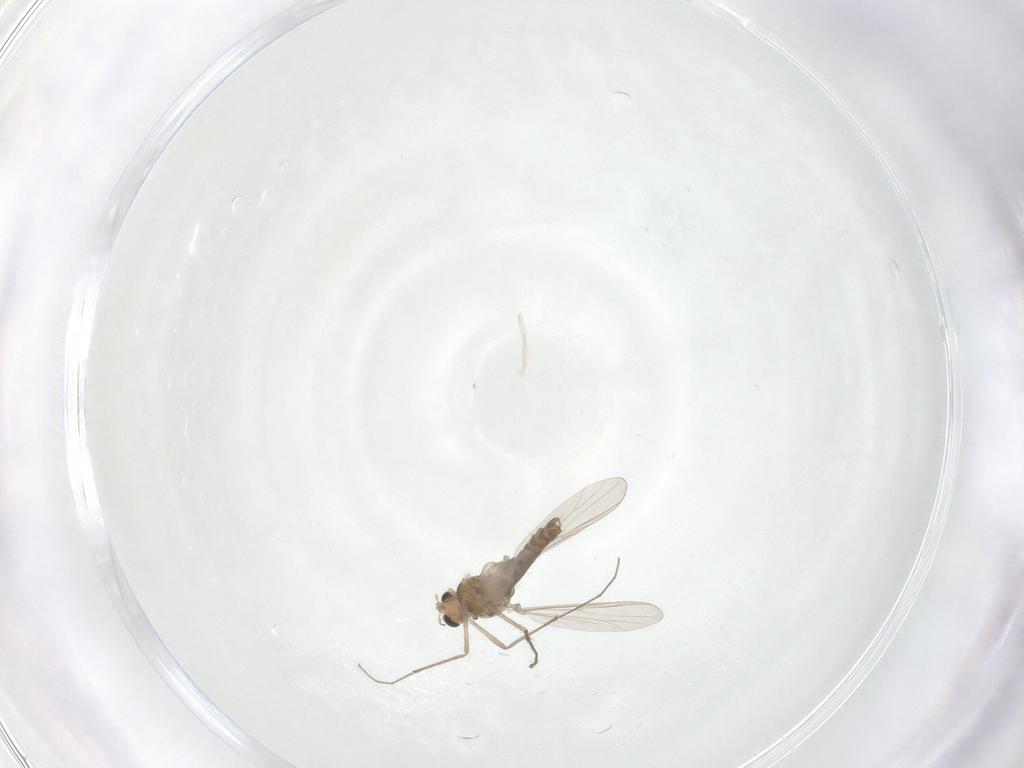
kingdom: Animalia
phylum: Arthropoda
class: Insecta
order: Diptera
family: Chironomidae
